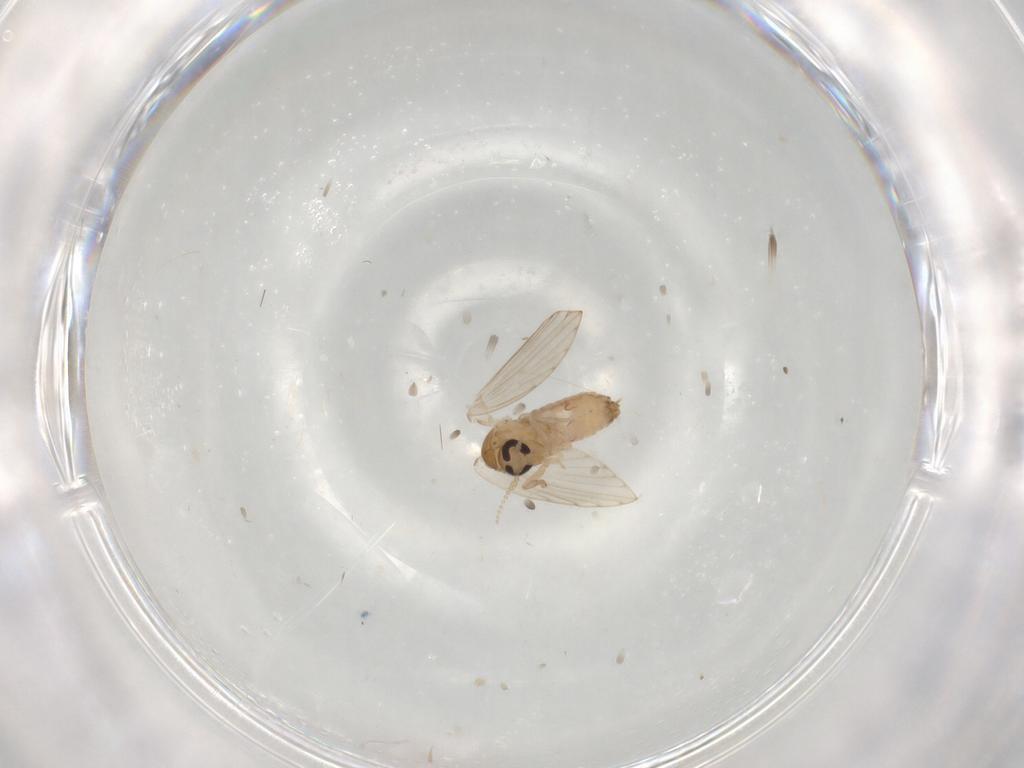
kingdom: Animalia
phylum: Arthropoda
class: Insecta
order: Diptera
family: Psychodidae
